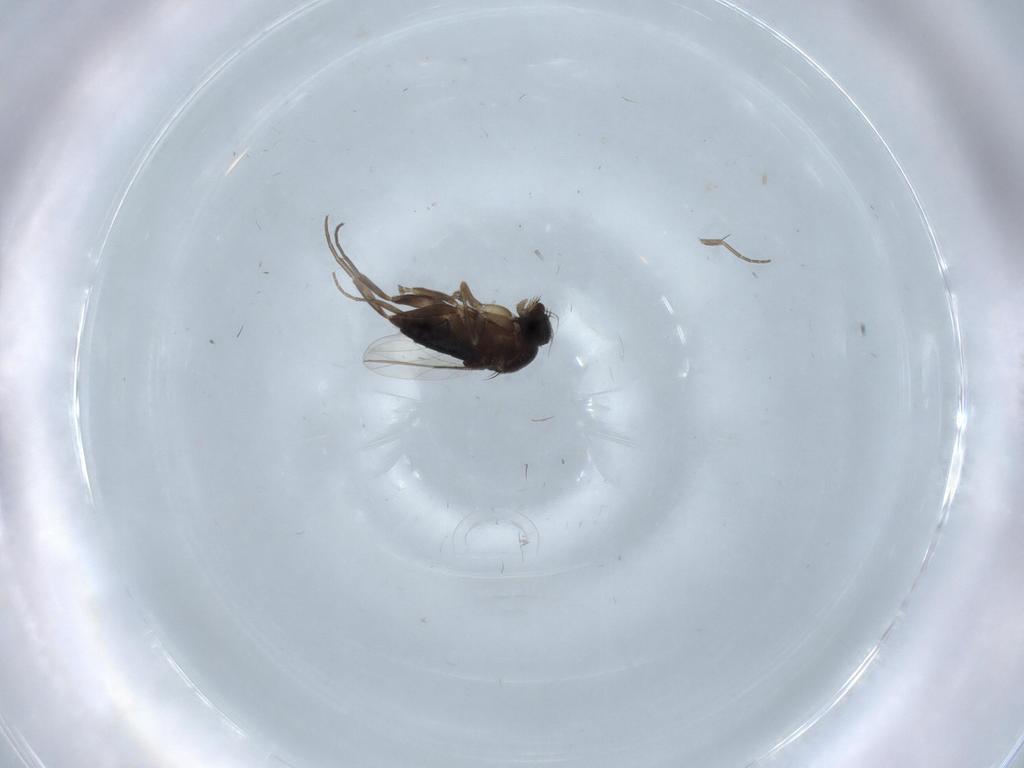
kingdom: Animalia
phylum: Arthropoda
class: Insecta
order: Diptera
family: Phoridae
